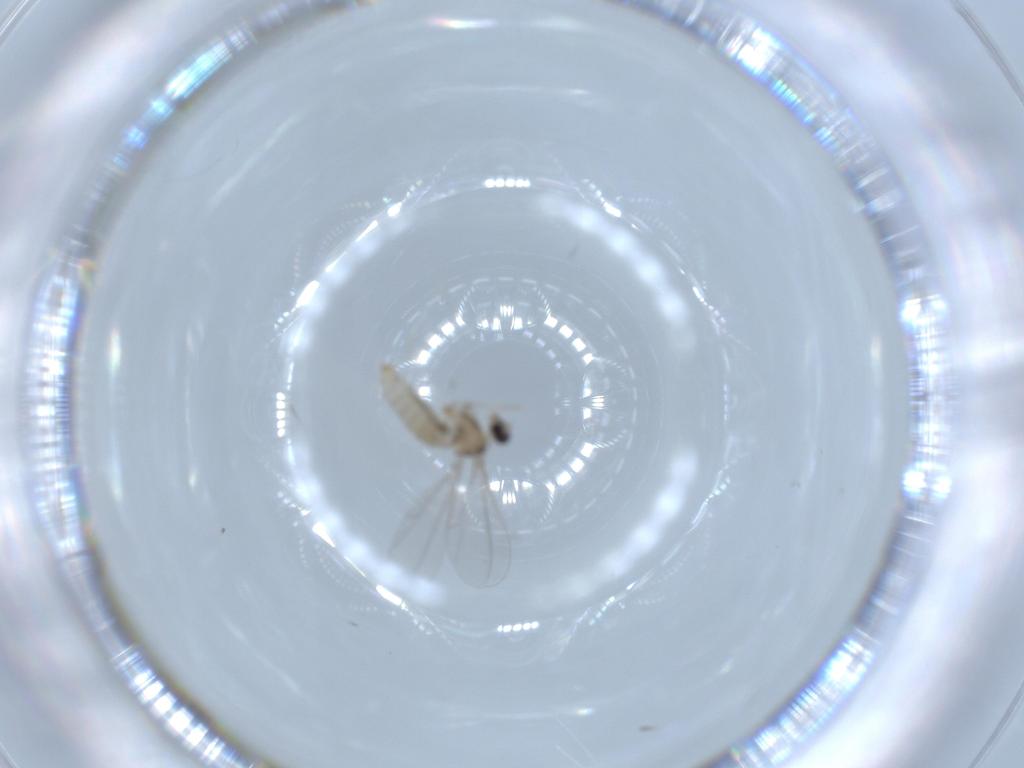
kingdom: Animalia
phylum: Arthropoda
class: Insecta
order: Diptera
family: Cecidomyiidae
